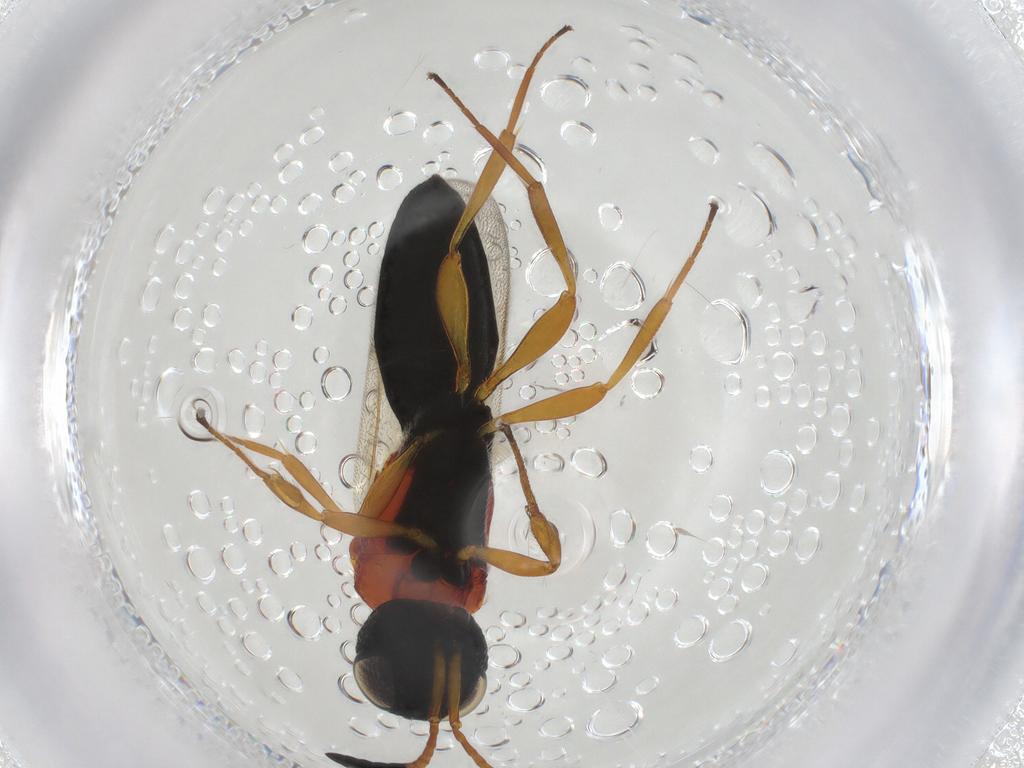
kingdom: Animalia
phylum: Arthropoda
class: Insecta
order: Hymenoptera
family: Scelionidae
